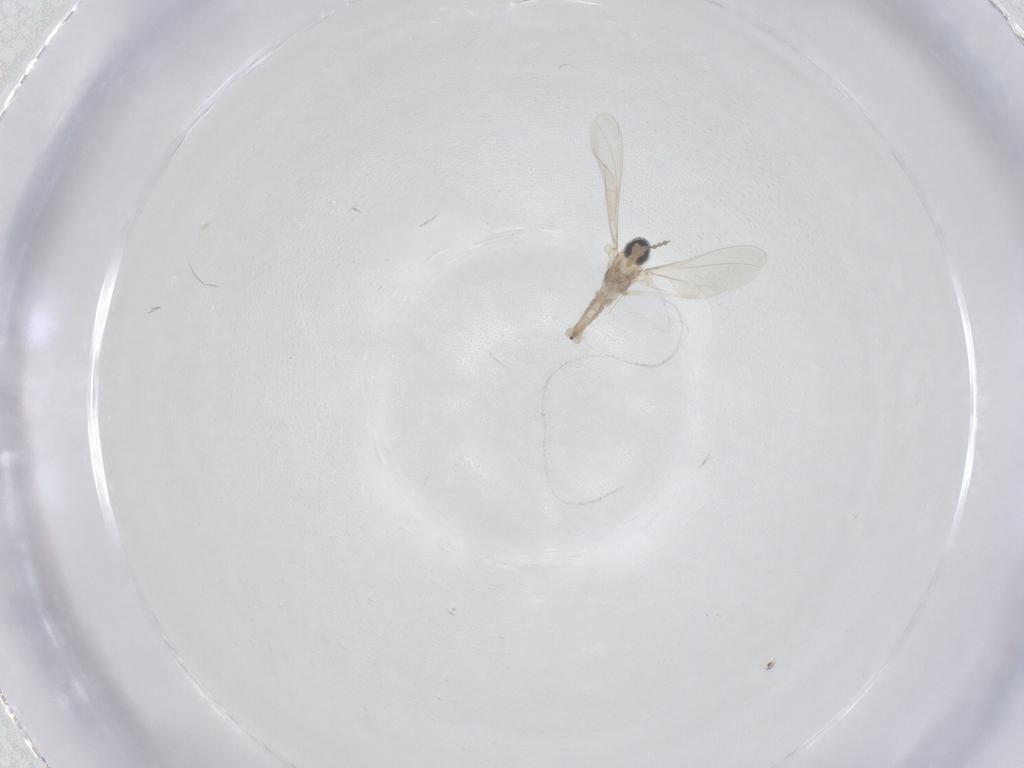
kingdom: Animalia
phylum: Arthropoda
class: Insecta
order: Diptera
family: Cecidomyiidae
